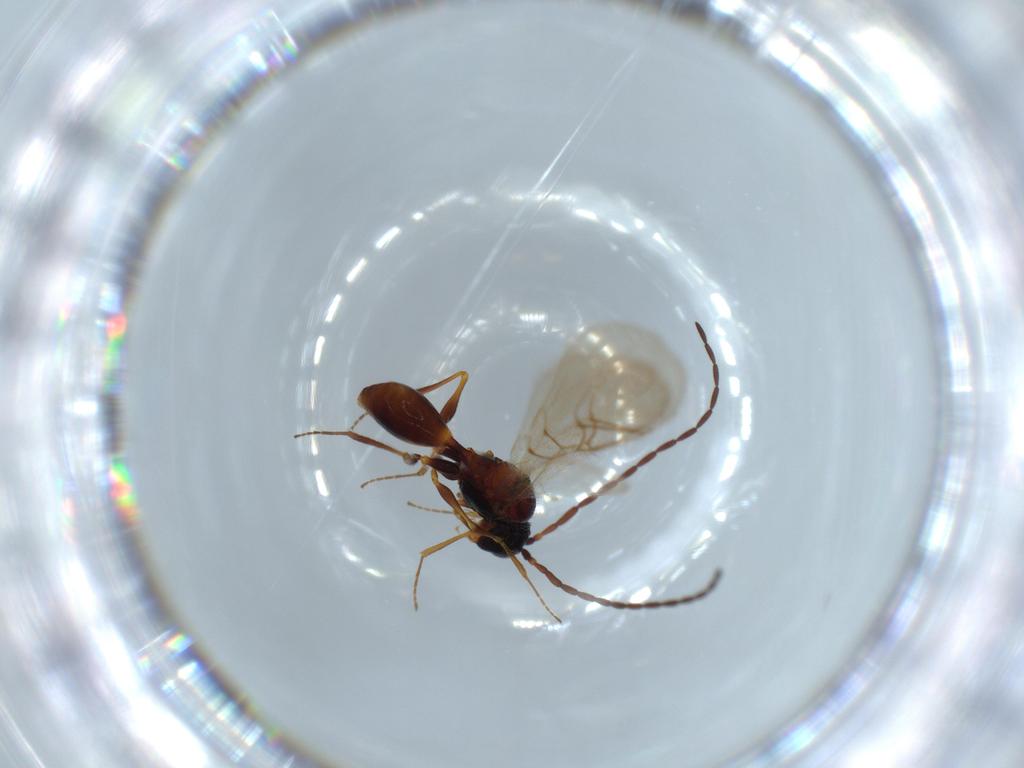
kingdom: Animalia
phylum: Arthropoda
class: Insecta
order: Hymenoptera
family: Figitidae
